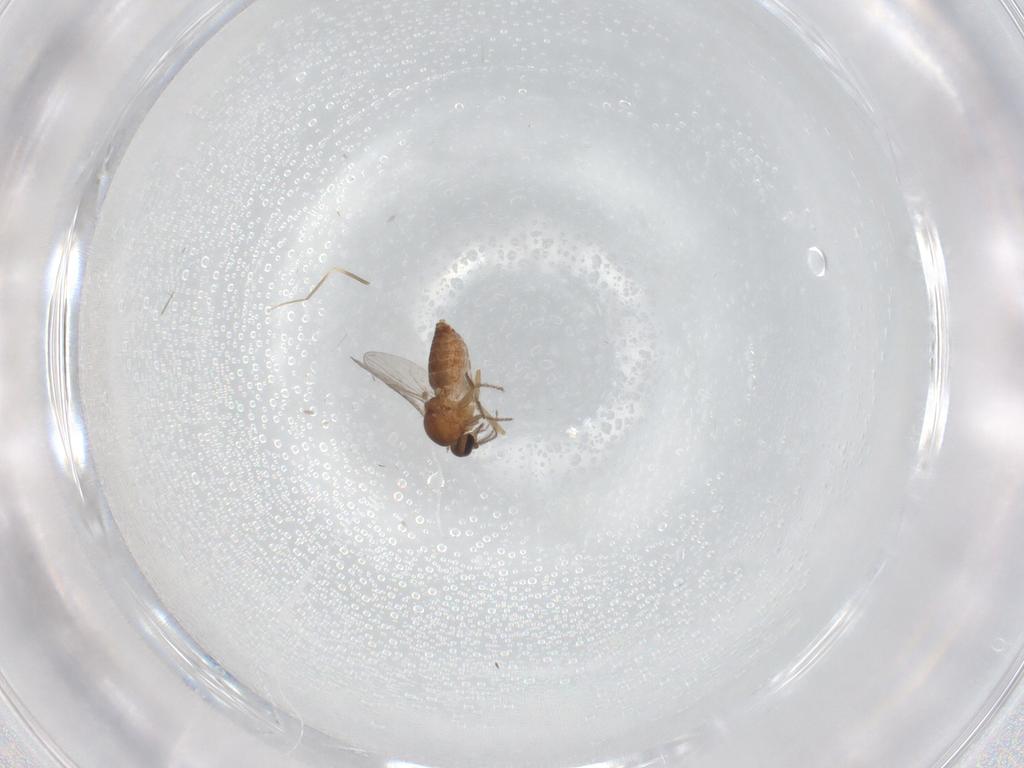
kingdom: Animalia
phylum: Arthropoda
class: Insecta
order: Diptera
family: Ceratopogonidae
